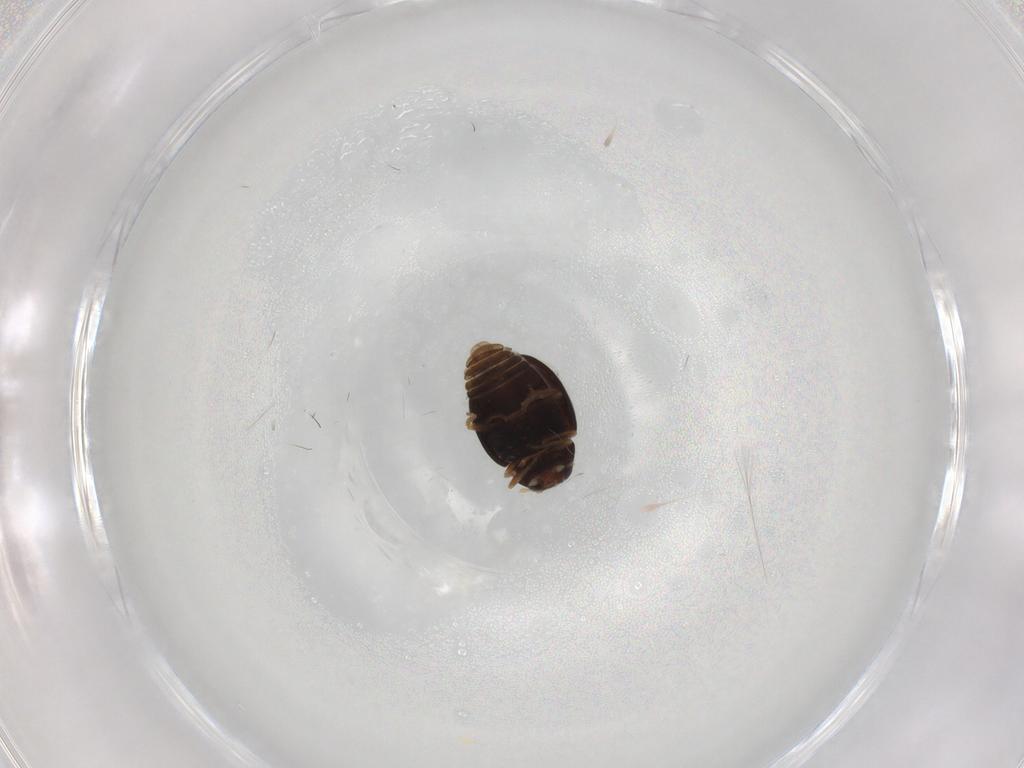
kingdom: Animalia
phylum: Arthropoda
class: Insecta
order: Coleoptera
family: Coccinellidae
